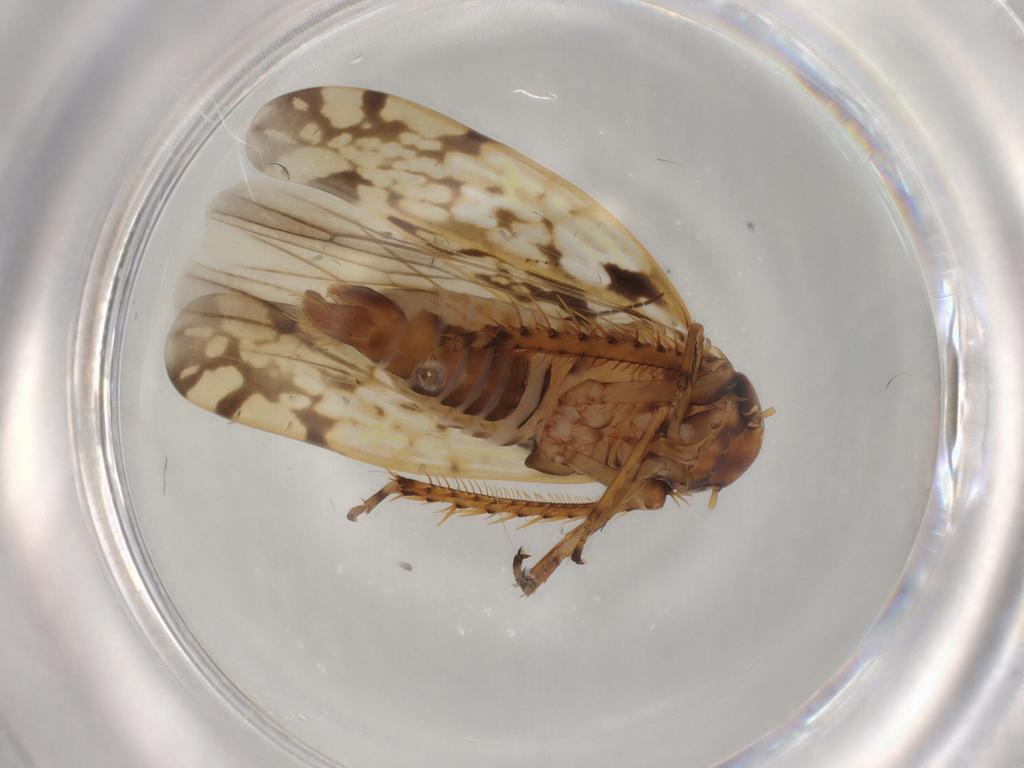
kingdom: Animalia
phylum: Arthropoda
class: Insecta
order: Hemiptera
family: Cicadellidae
